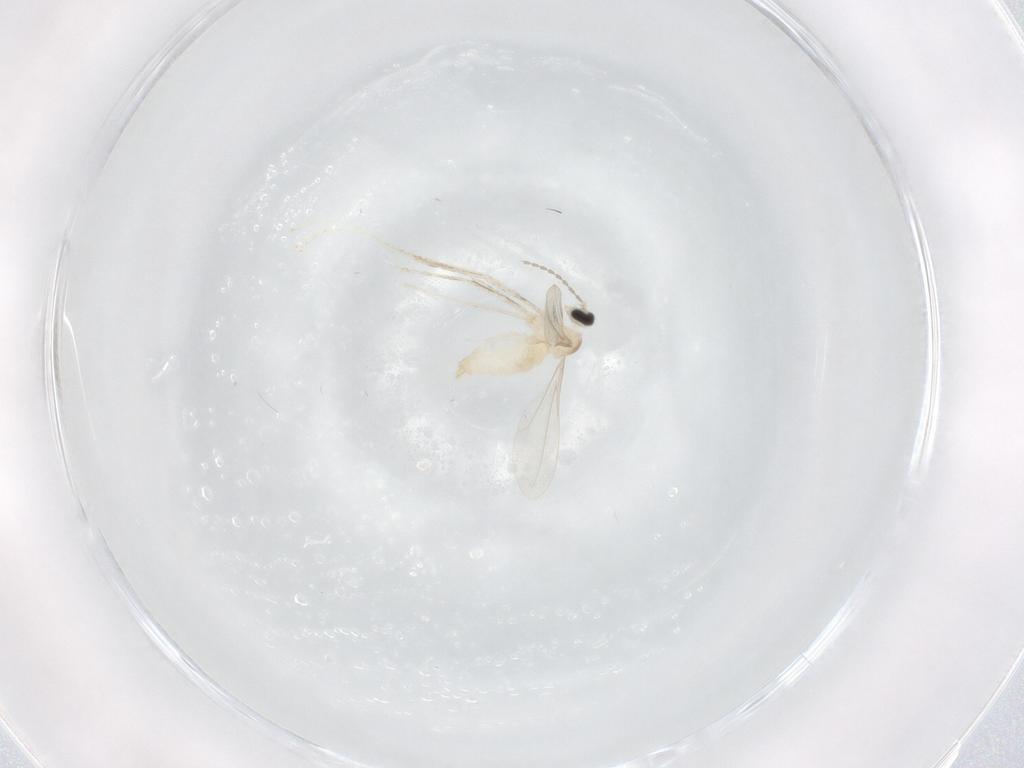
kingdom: Animalia
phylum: Arthropoda
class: Insecta
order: Diptera
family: Cecidomyiidae
